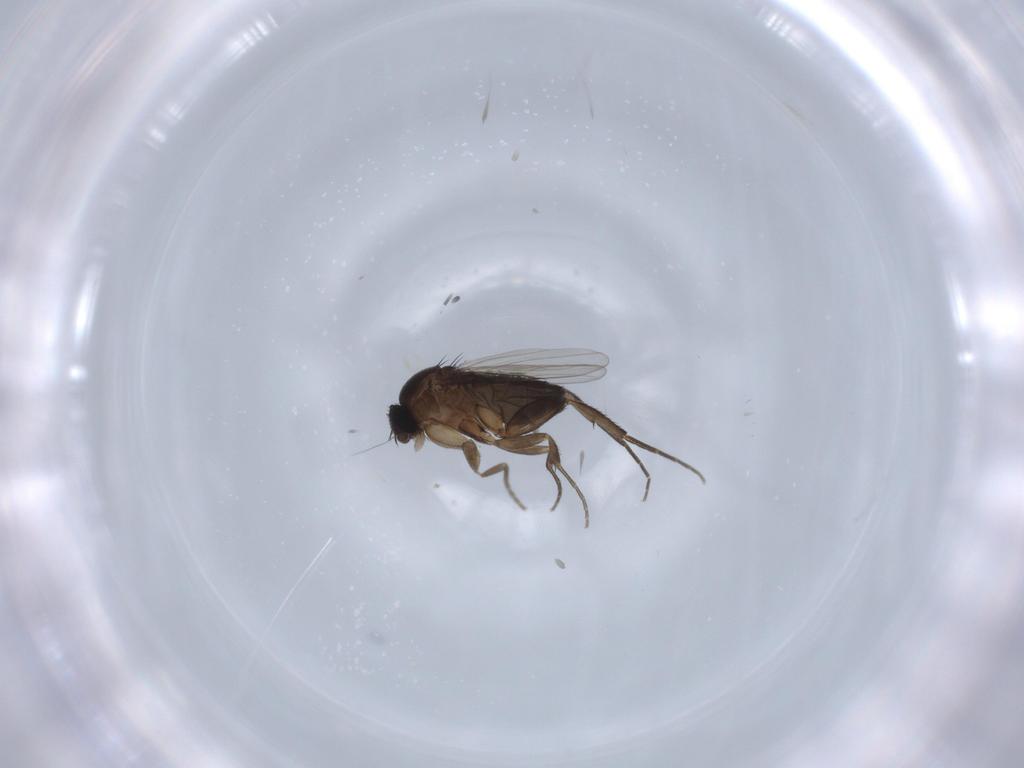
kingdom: Animalia
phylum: Arthropoda
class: Insecta
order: Diptera
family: Phoridae
